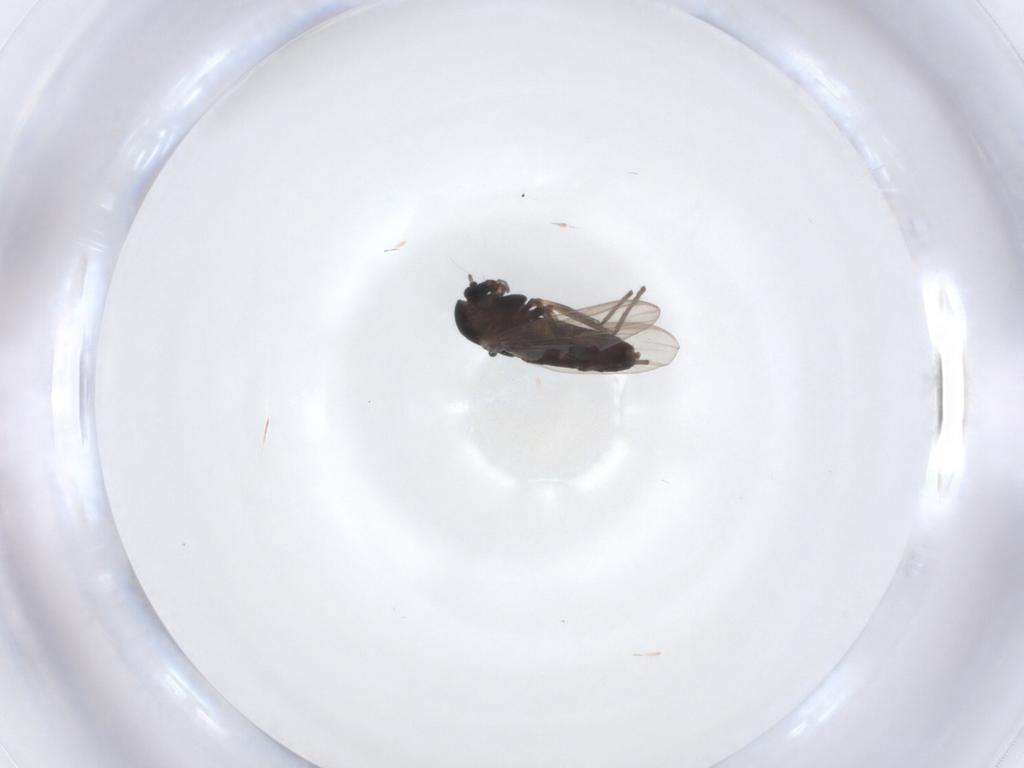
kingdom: Animalia
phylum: Arthropoda
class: Insecta
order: Diptera
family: Chironomidae
